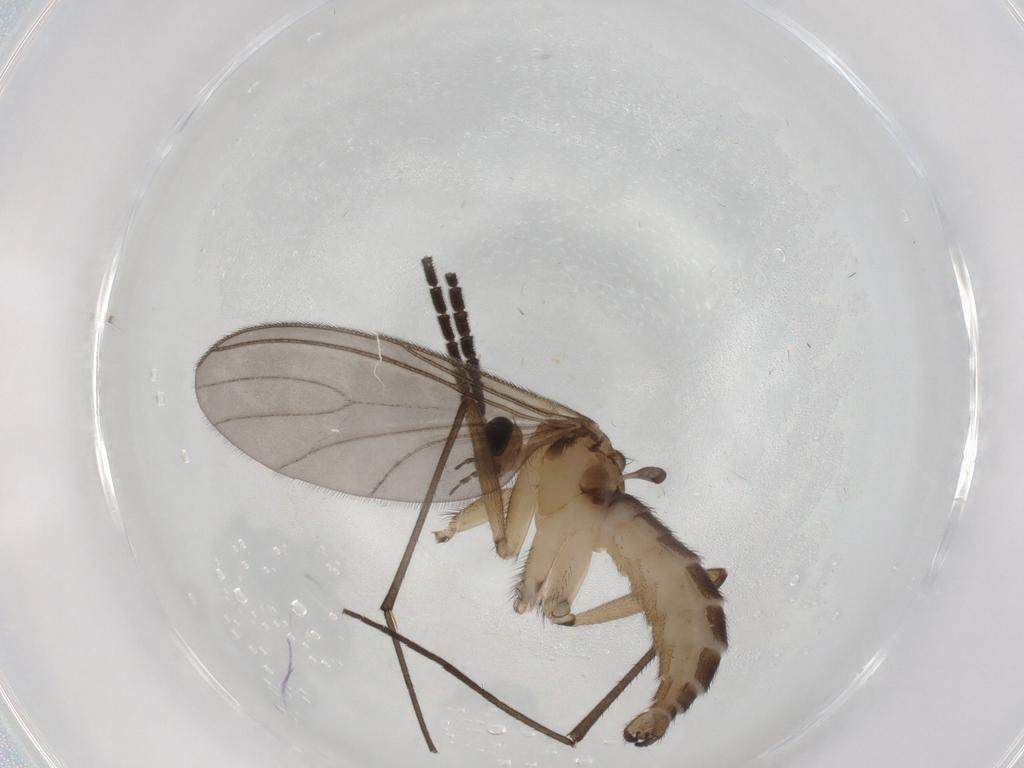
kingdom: Animalia
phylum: Arthropoda
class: Insecta
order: Diptera
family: Sciaridae
